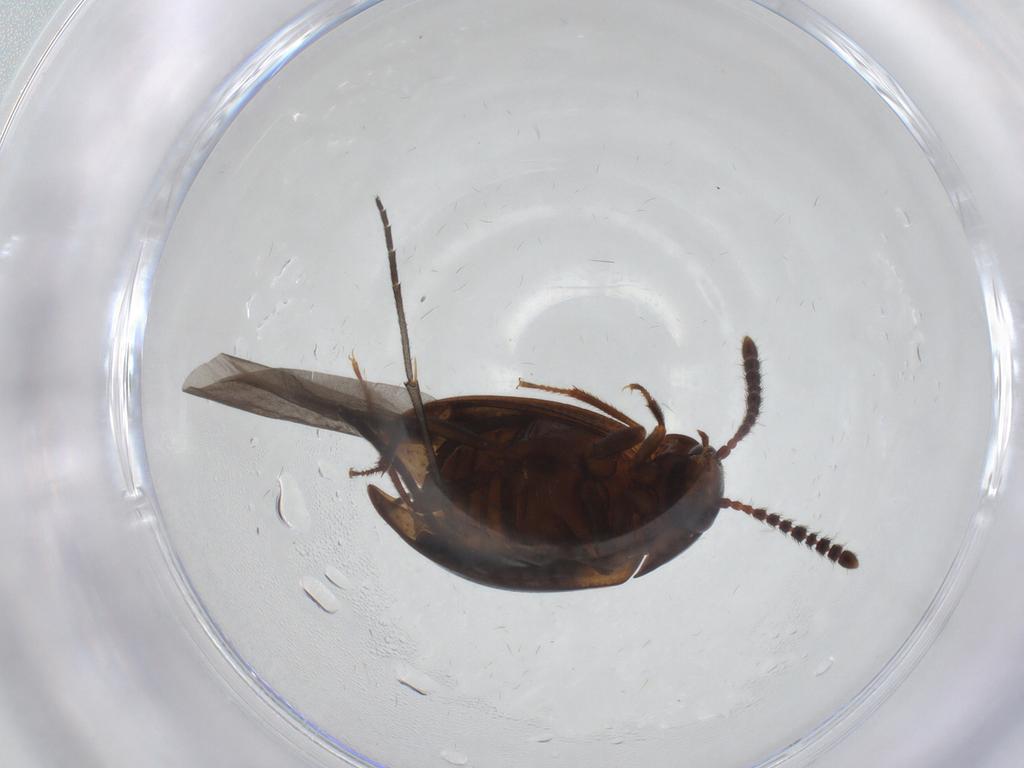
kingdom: Animalia
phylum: Arthropoda
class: Insecta
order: Coleoptera
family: Leiodidae
